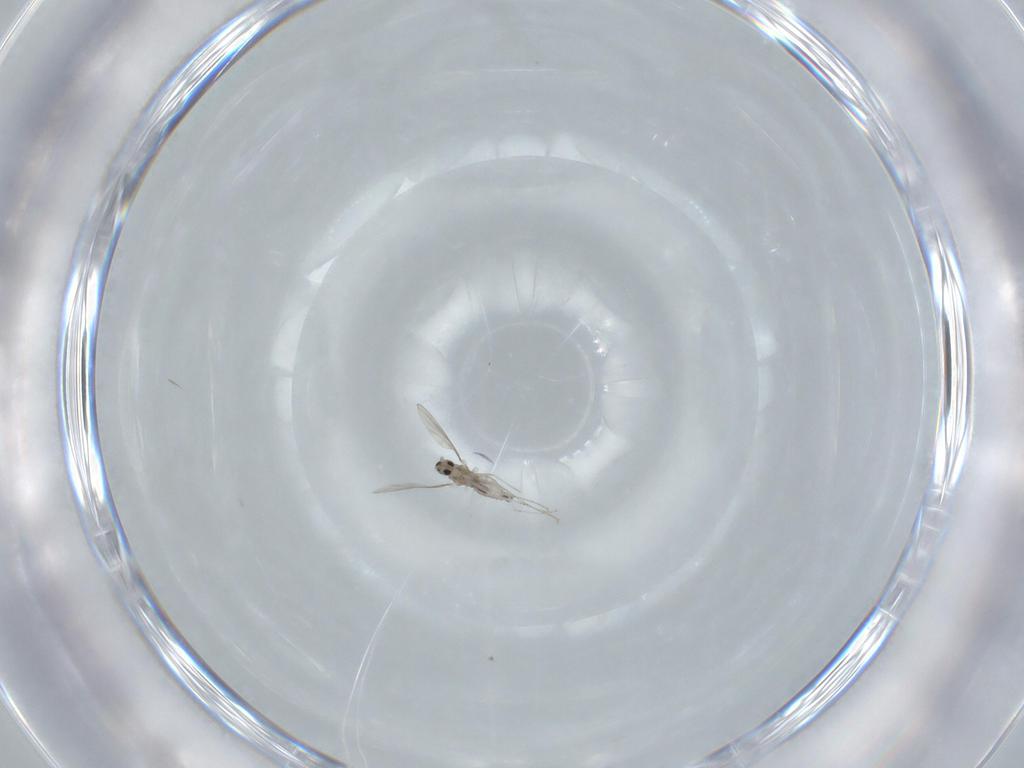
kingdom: Animalia
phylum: Arthropoda
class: Insecta
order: Diptera
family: Cecidomyiidae
